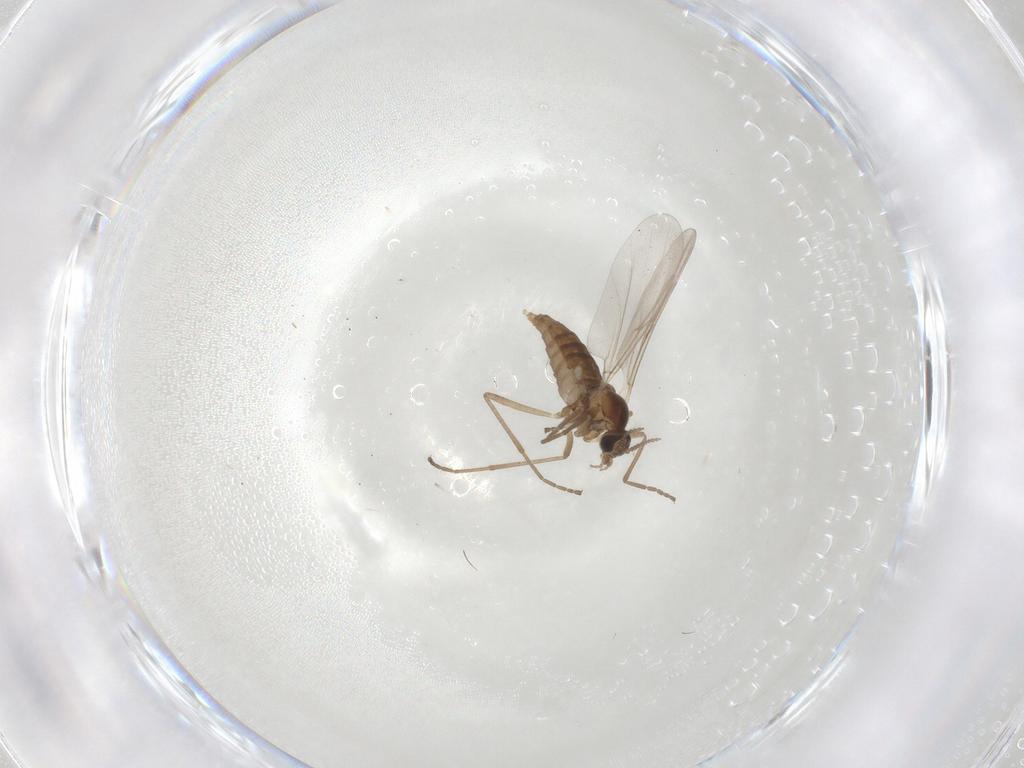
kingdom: Animalia
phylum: Arthropoda
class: Insecta
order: Diptera
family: Cecidomyiidae
